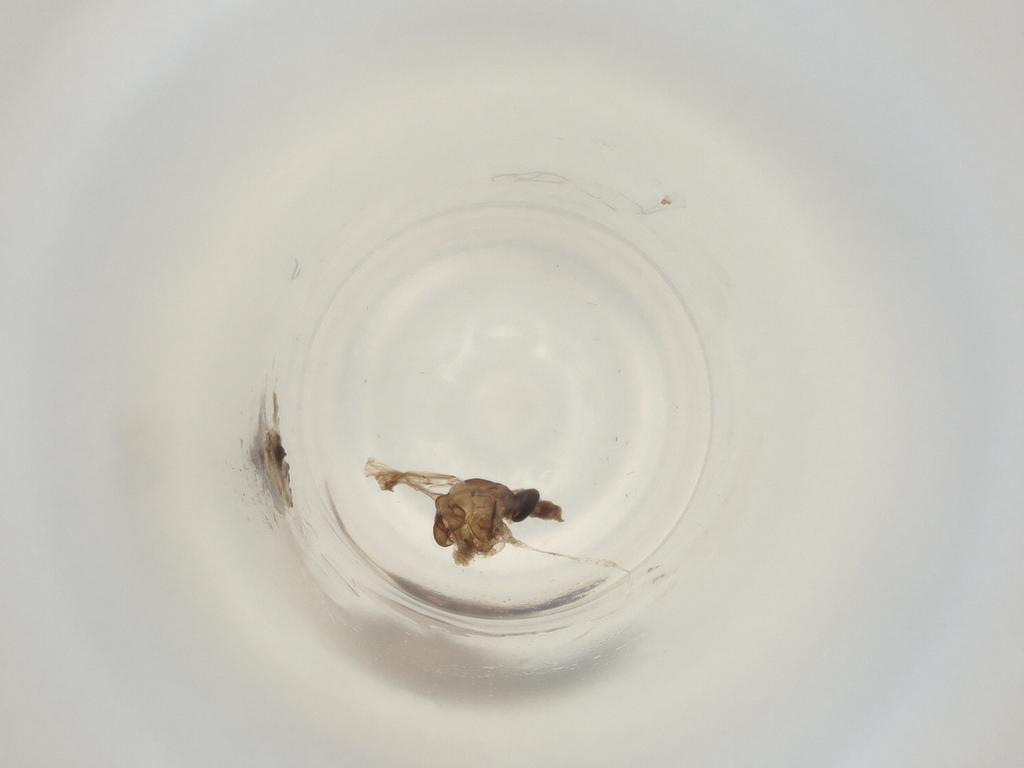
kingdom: Animalia
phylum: Arthropoda
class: Insecta
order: Diptera
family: Cecidomyiidae
